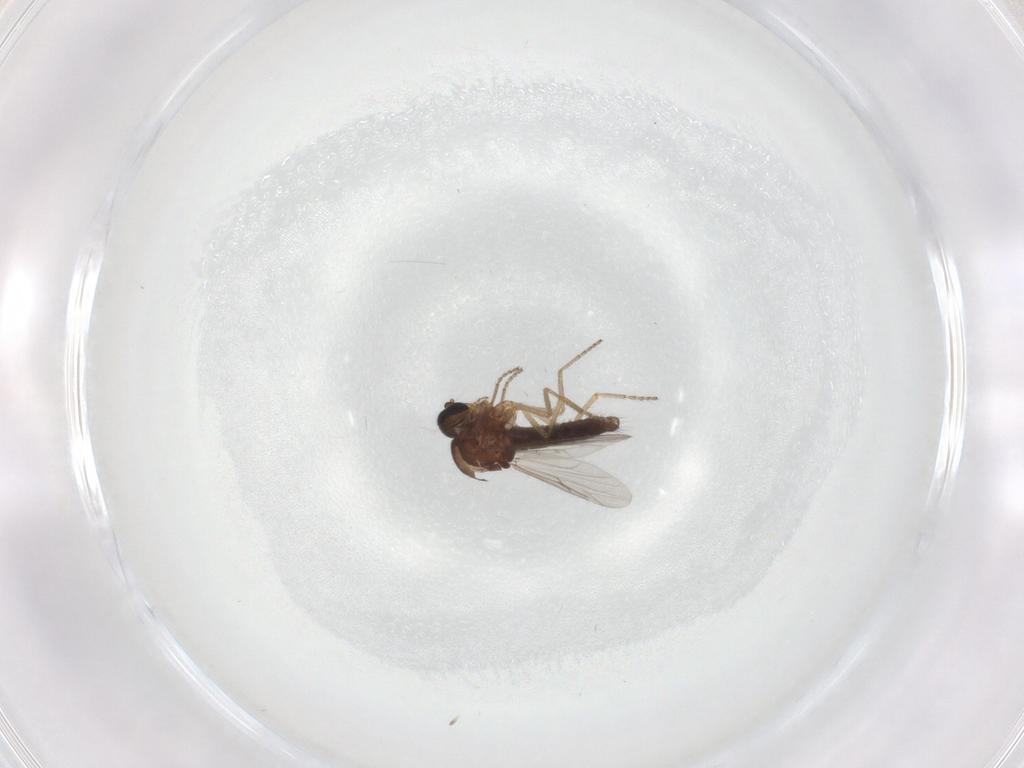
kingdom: Animalia
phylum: Arthropoda
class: Insecta
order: Diptera
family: Ceratopogonidae
